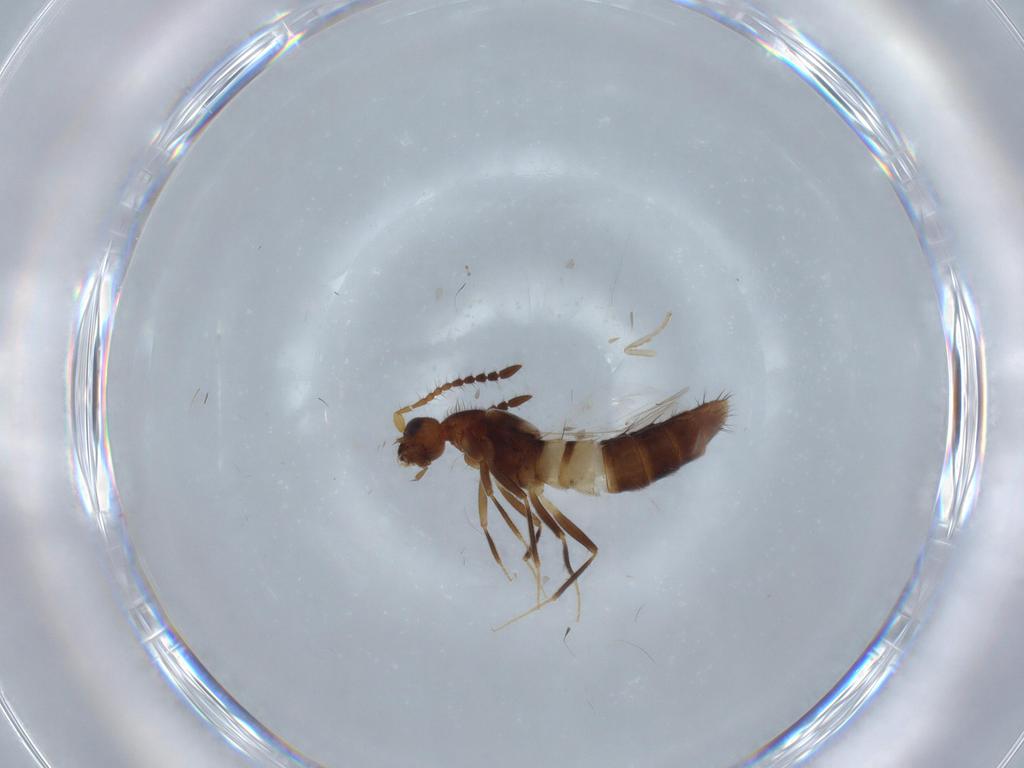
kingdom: Animalia
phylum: Arthropoda
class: Insecta
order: Coleoptera
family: Staphylinidae
